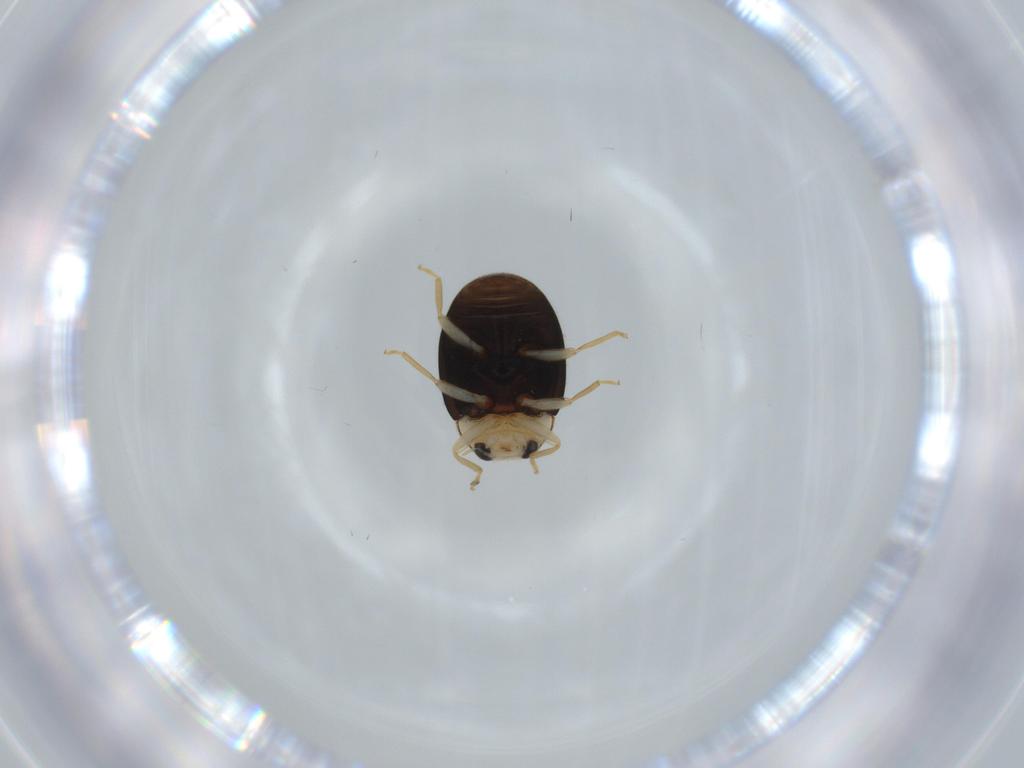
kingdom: Animalia
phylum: Arthropoda
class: Insecta
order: Coleoptera
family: Coccinellidae
